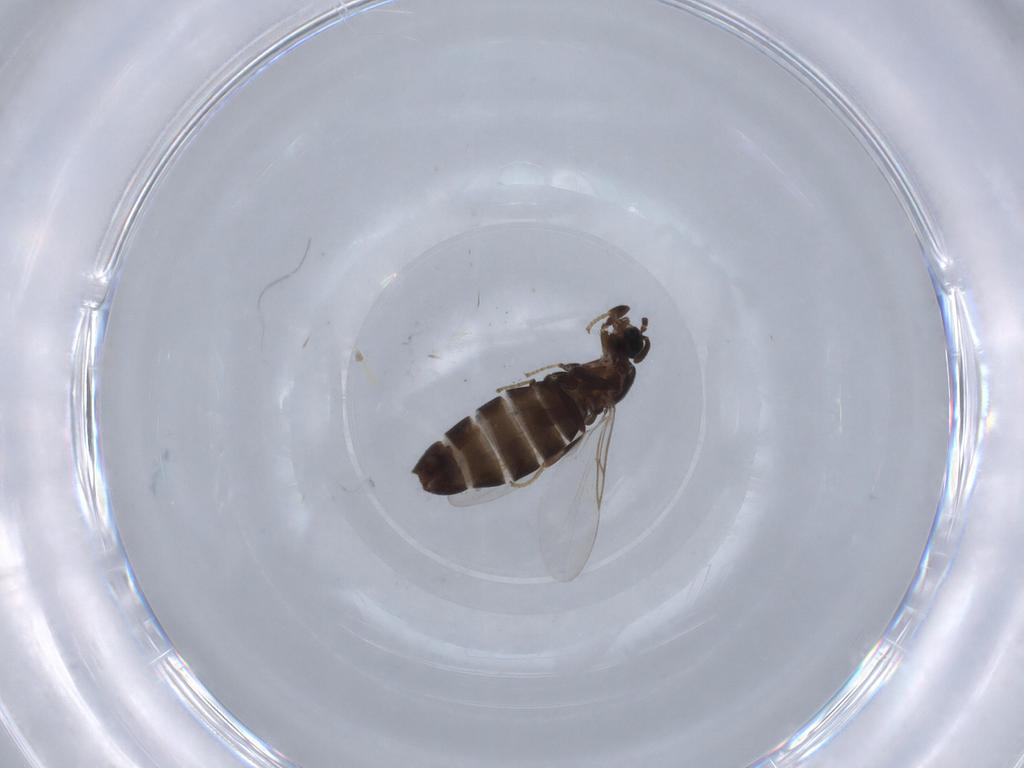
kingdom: Animalia
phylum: Arthropoda
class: Insecta
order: Diptera
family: Scatopsidae
